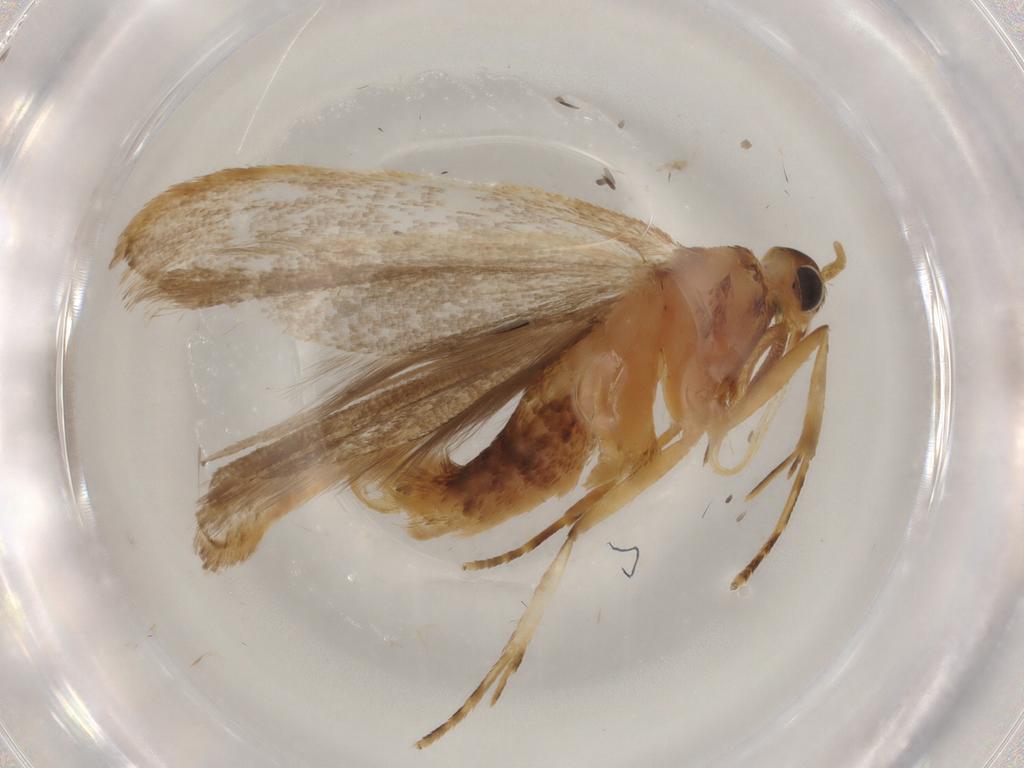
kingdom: Animalia
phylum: Arthropoda
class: Insecta
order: Lepidoptera
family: Lecithoceridae
